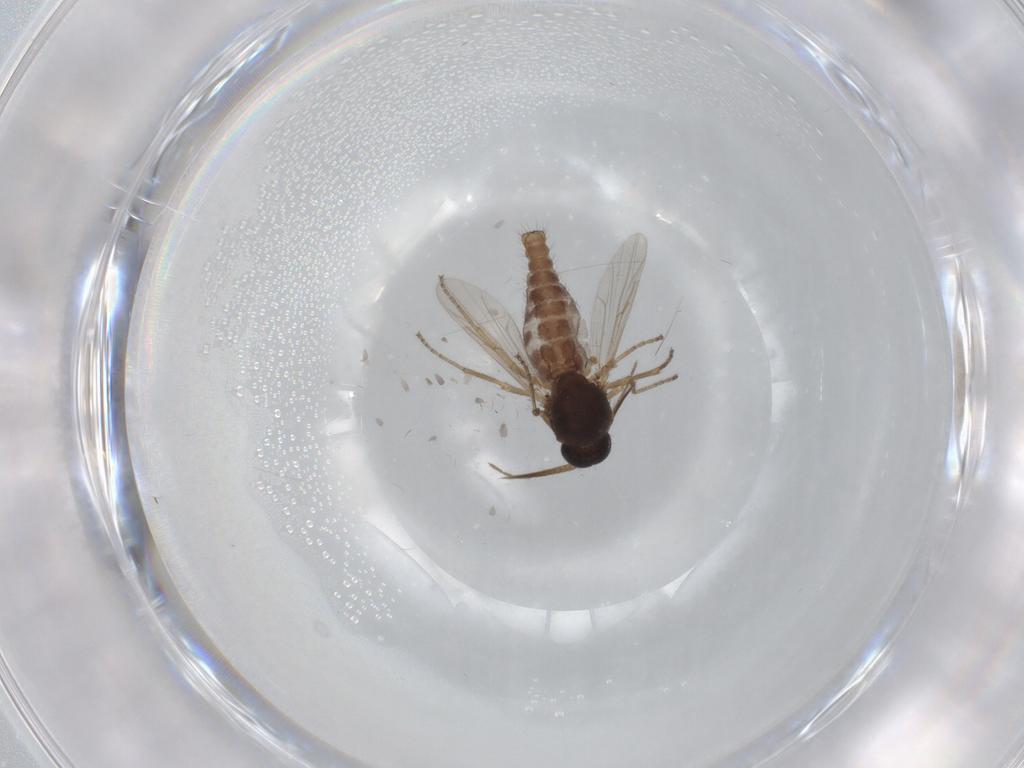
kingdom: Animalia
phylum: Arthropoda
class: Insecta
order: Diptera
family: Ceratopogonidae
